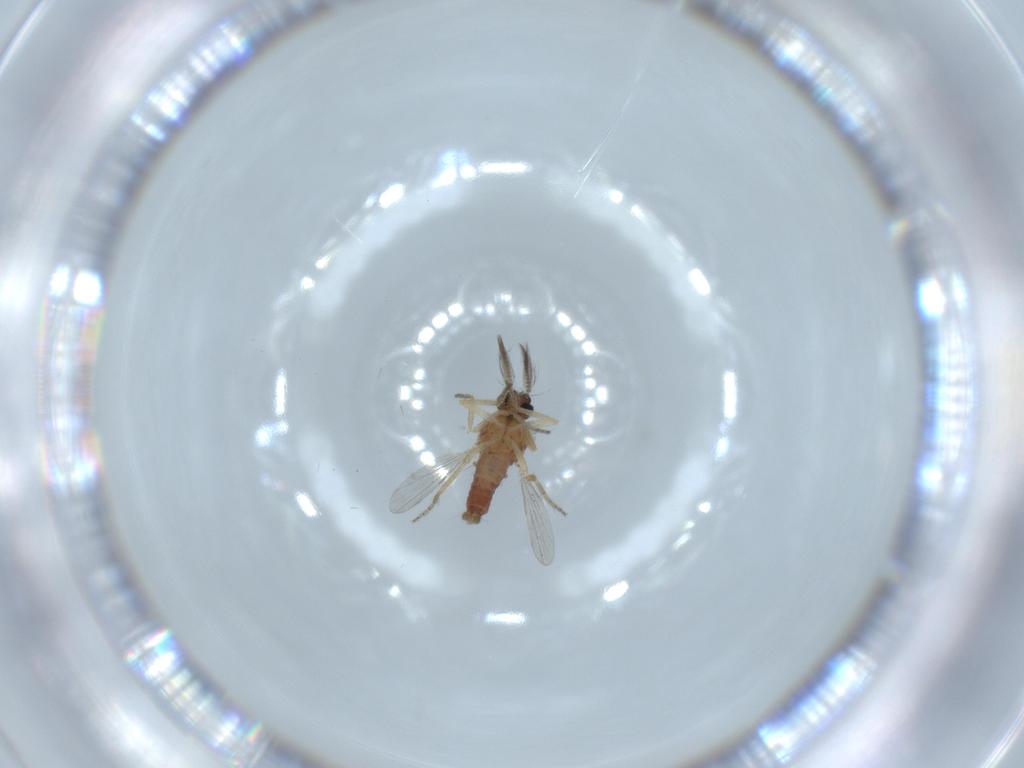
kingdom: Animalia
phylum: Arthropoda
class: Insecta
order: Diptera
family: Ceratopogonidae
